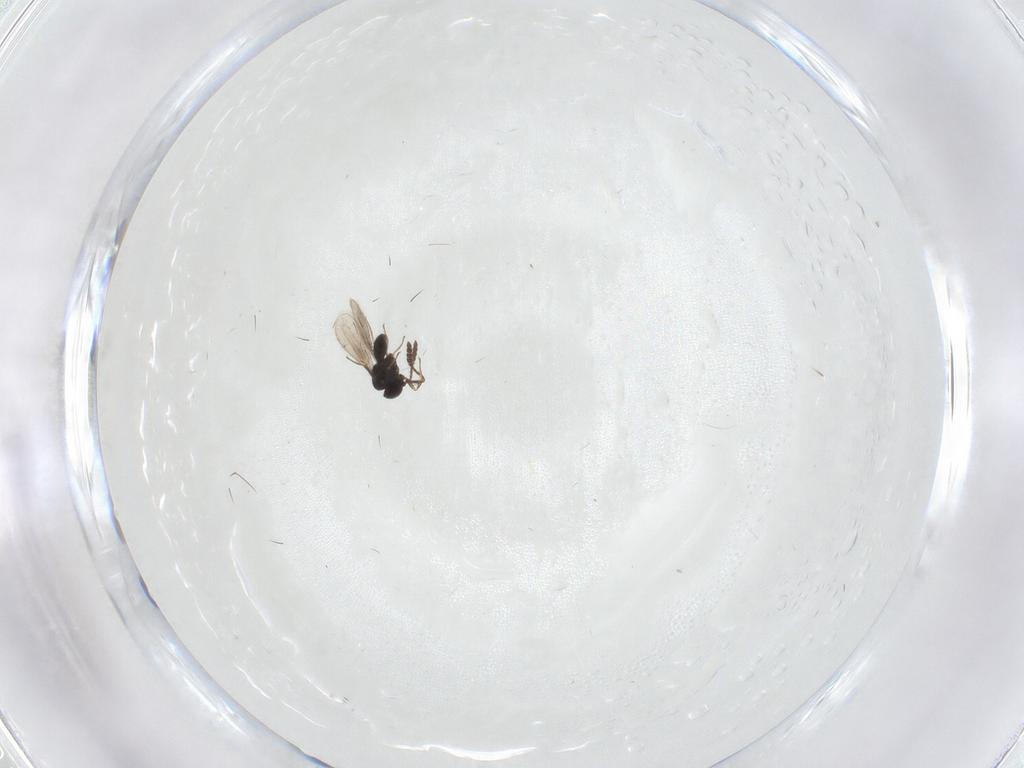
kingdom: Animalia
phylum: Arthropoda
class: Insecta
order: Hymenoptera
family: Scelionidae
